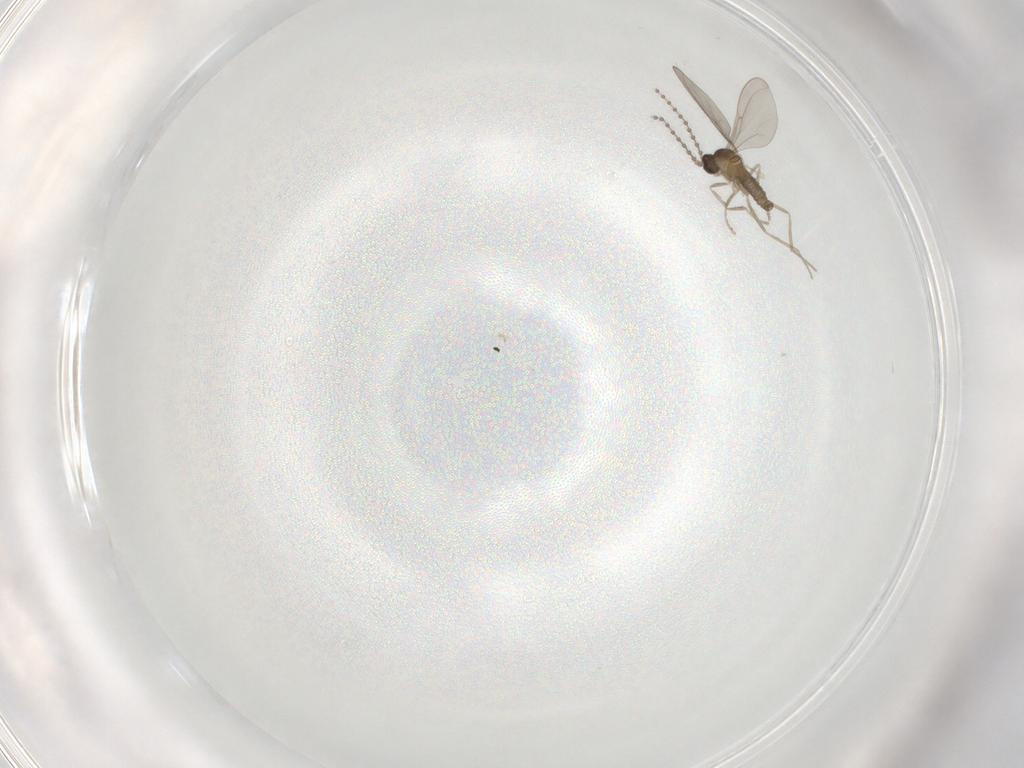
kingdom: Animalia
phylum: Arthropoda
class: Insecta
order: Diptera
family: Cecidomyiidae
